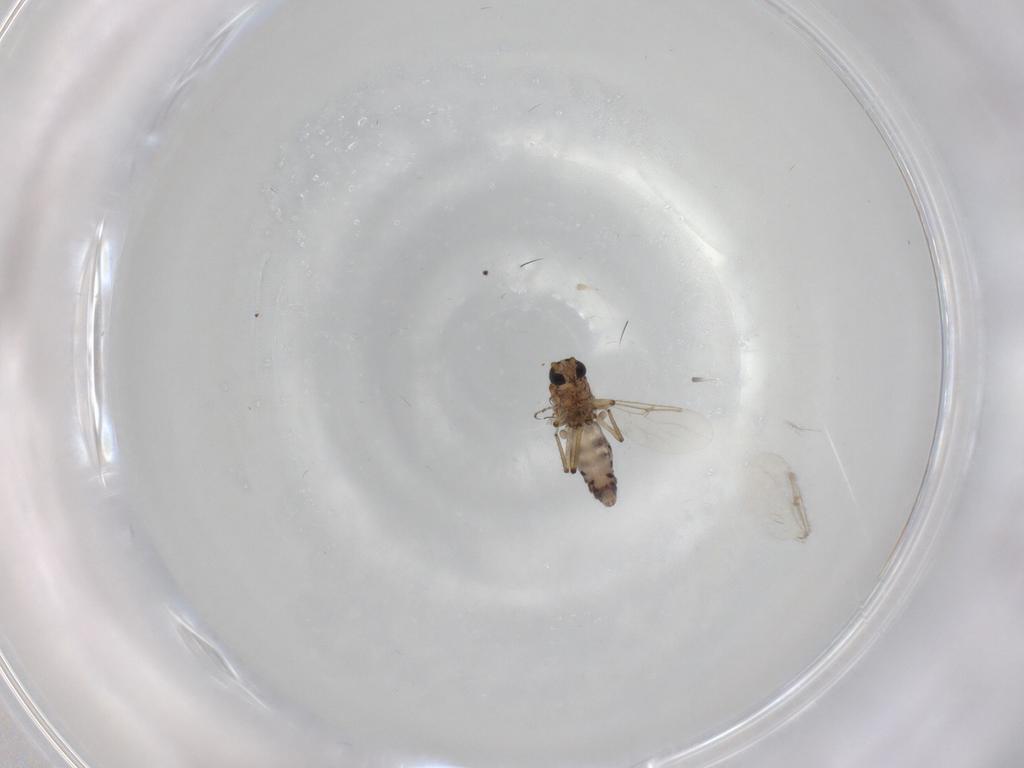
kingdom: Animalia
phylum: Arthropoda
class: Insecta
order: Diptera
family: Ceratopogonidae
